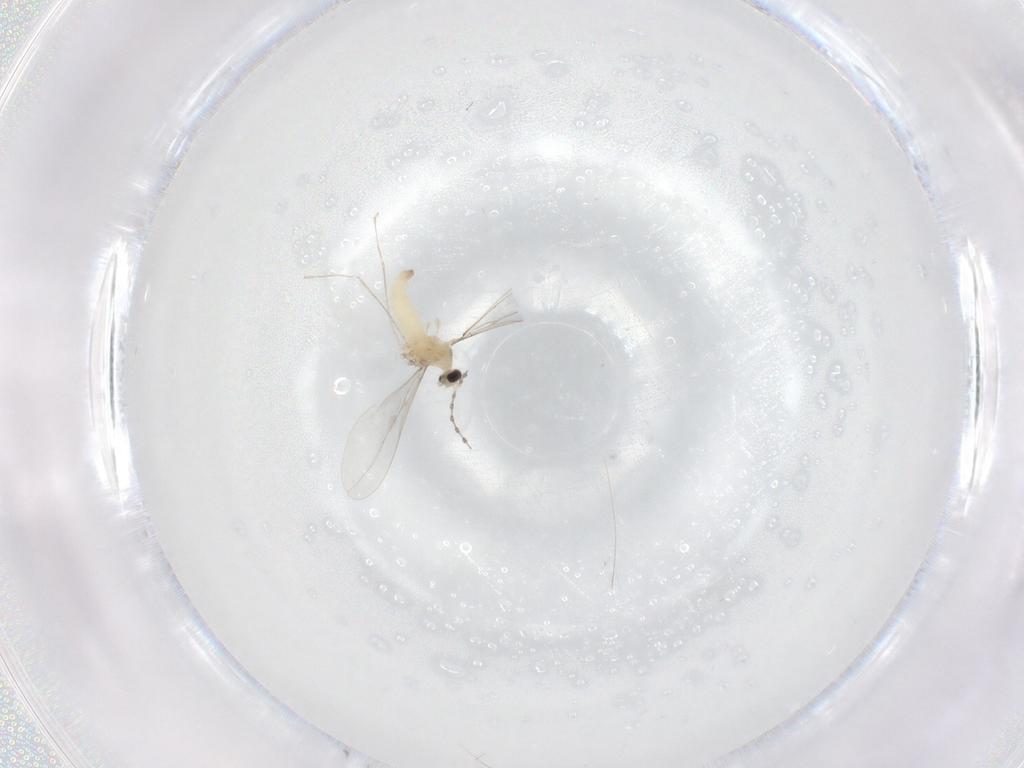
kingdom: Animalia
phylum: Arthropoda
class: Insecta
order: Diptera
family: Cecidomyiidae
